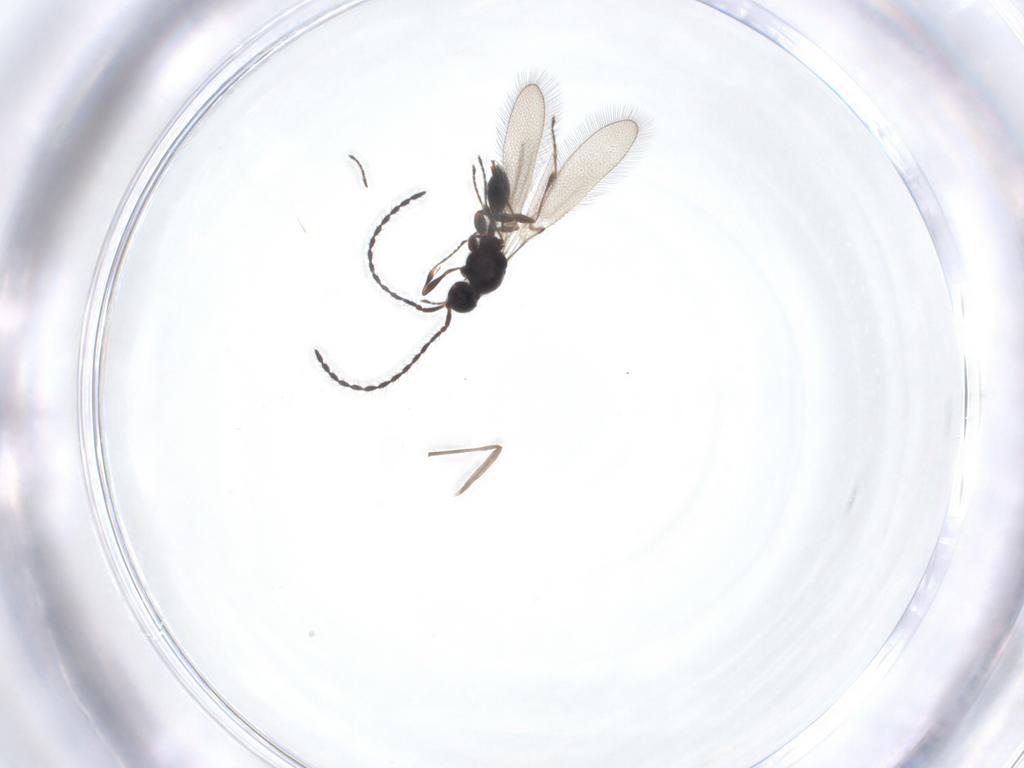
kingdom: Animalia
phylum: Arthropoda
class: Insecta
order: Hymenoptera
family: Diapriidae
